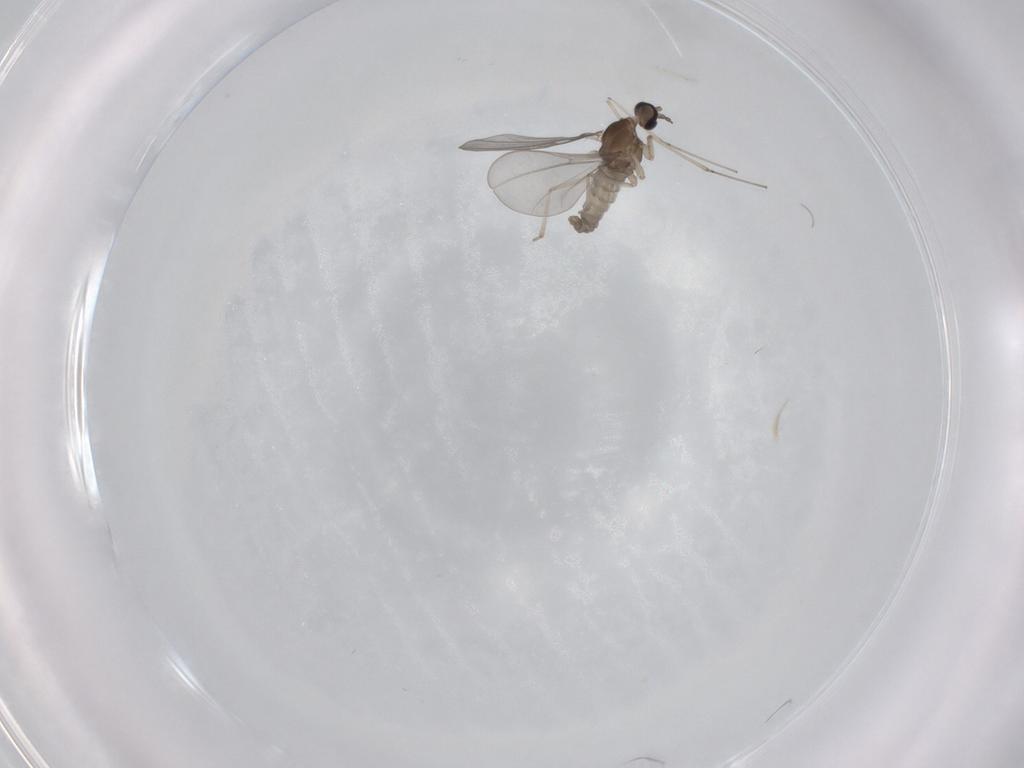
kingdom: Animalia
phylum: Arthropoda
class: Insecta
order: Diptera
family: Cecidomyiidae
